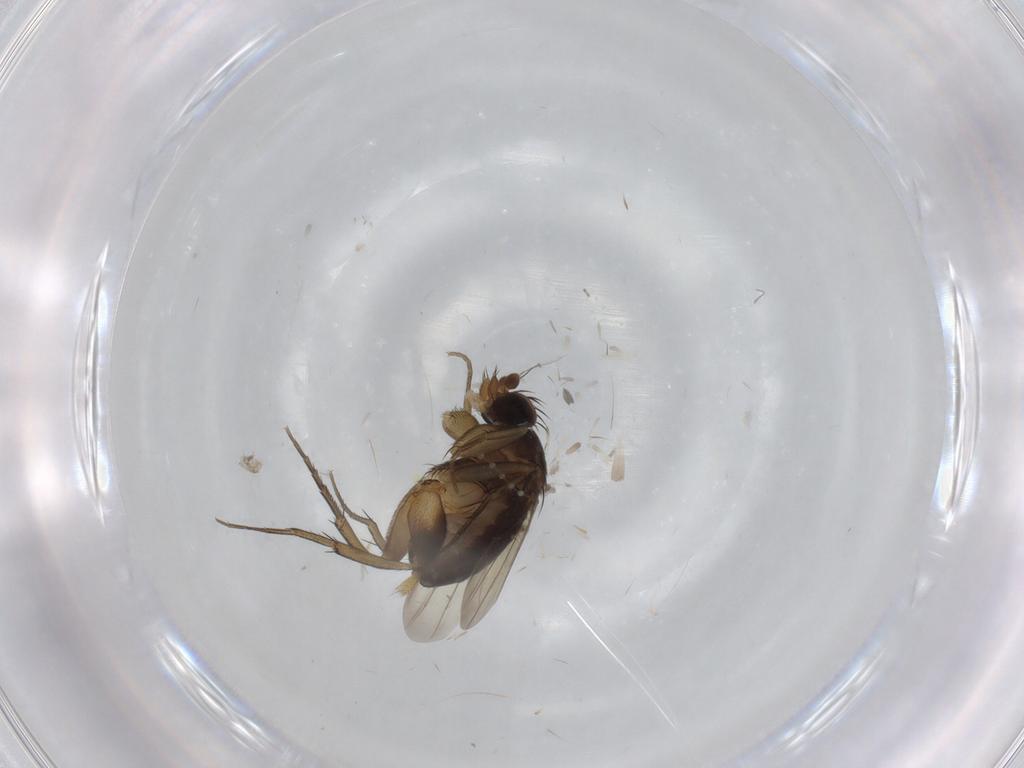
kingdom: Animalia
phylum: Arthropoda
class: Insecta
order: Diptera
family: Phoridae
